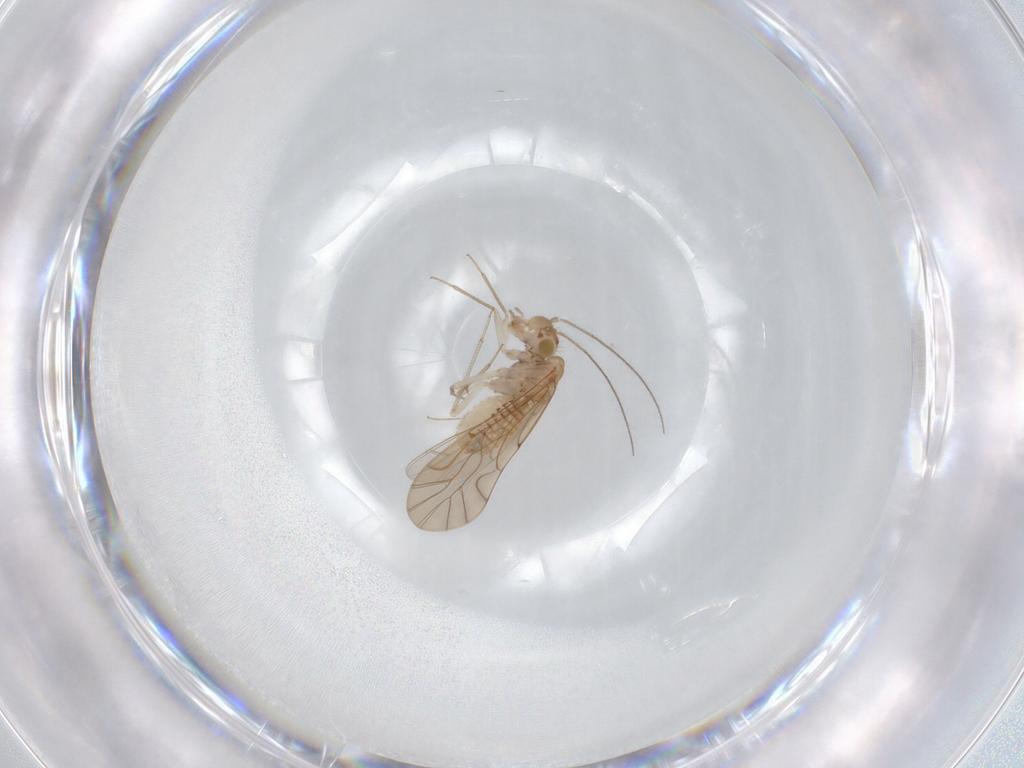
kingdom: Animalia
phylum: Arthropoda
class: Insecta
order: Psocodea
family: Lachesillidae
